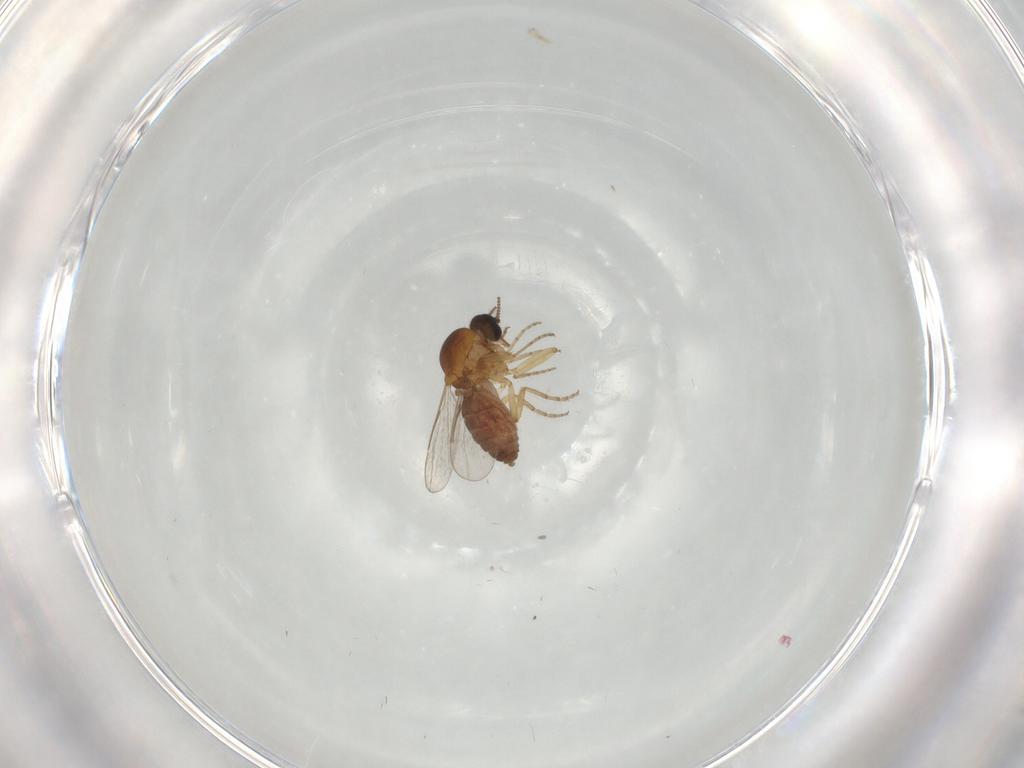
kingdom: Animalia
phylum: Arthropoda
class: Insecta
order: Diptera
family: Ceratopogonidae
